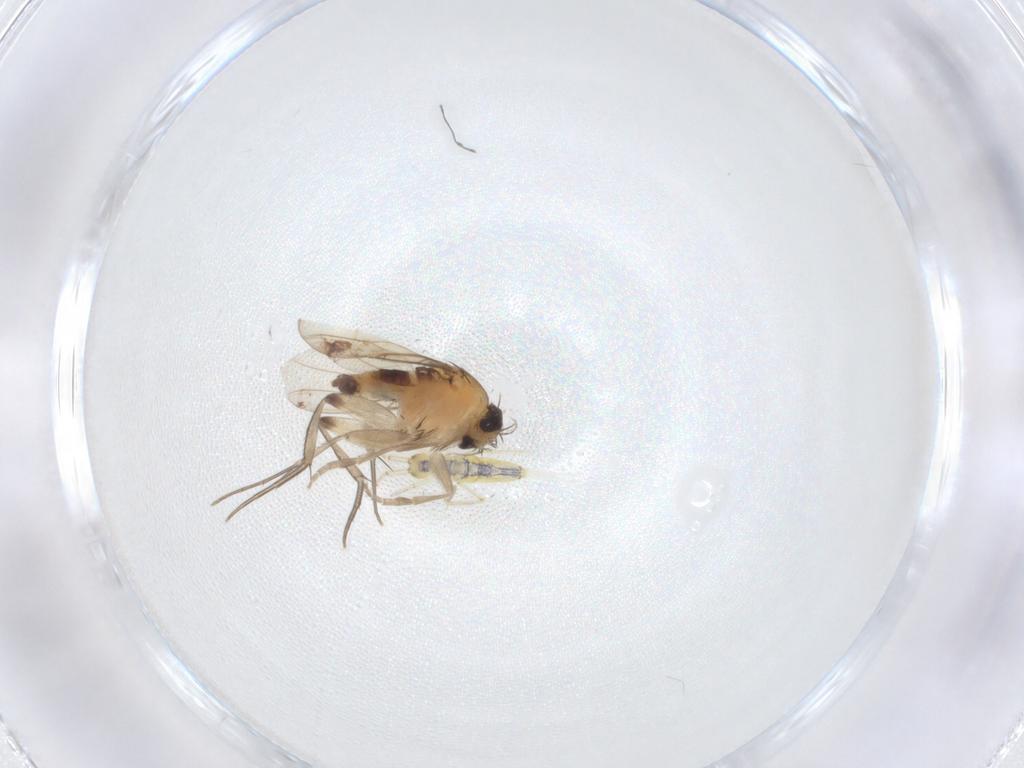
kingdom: Animalia
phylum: Arthropoda
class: Insecta
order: Diptera
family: Phoridae
